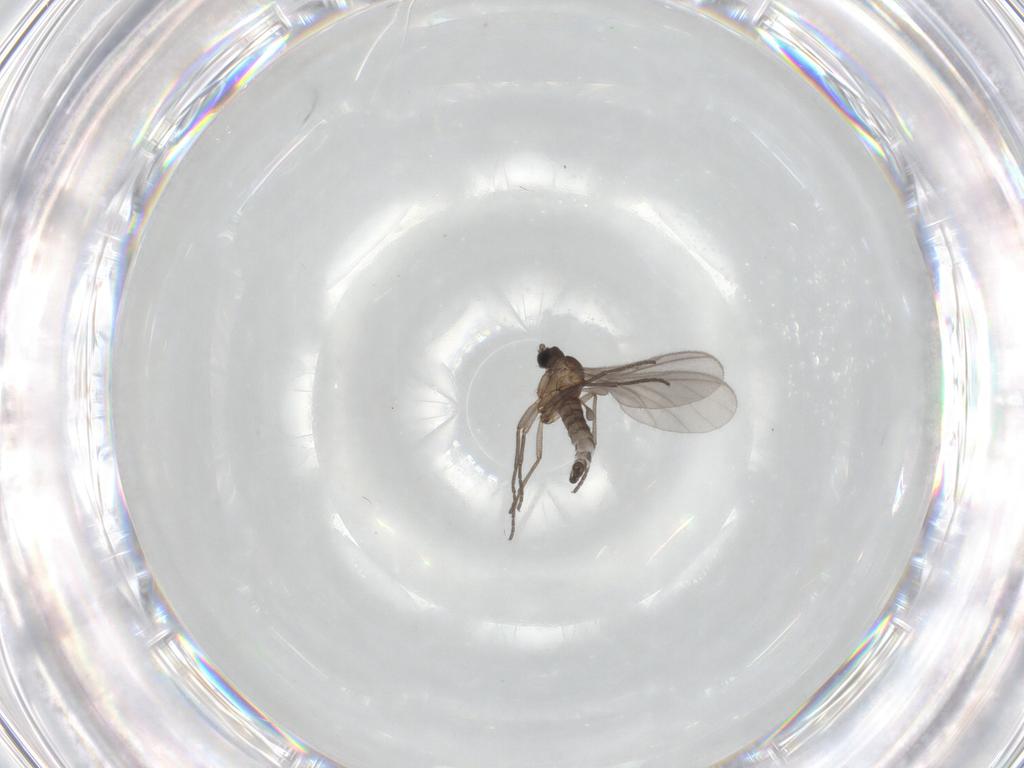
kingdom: Animalia
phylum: Arthropoda
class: Insecta
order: Diptera
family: Sciaridae
